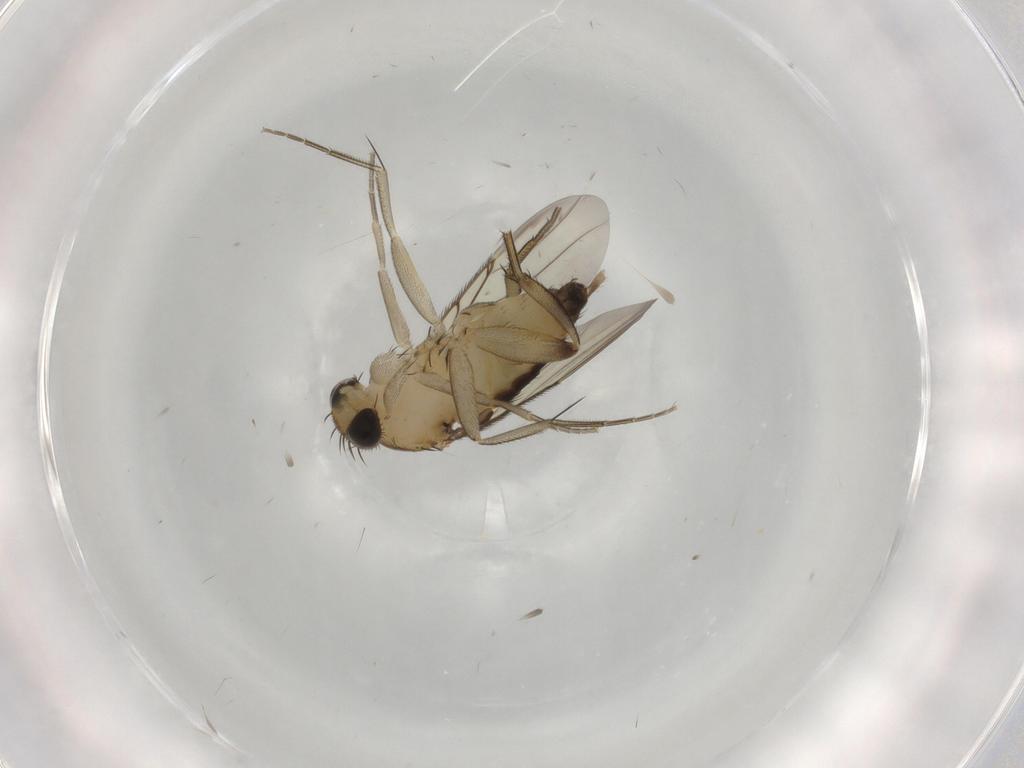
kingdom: Animalia
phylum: Arthropoda
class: Insecta
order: Diptera
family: Phoridae
